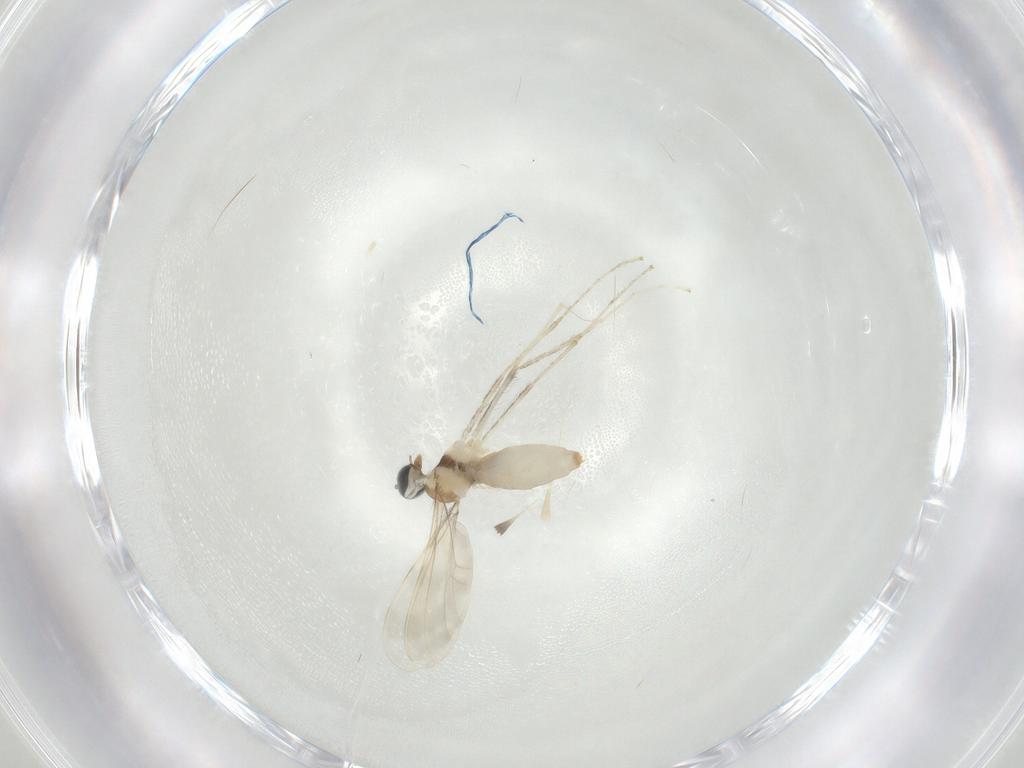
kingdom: Animalia
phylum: Arthropoda
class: Insecta
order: Diptera
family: Cecidomyiidae
